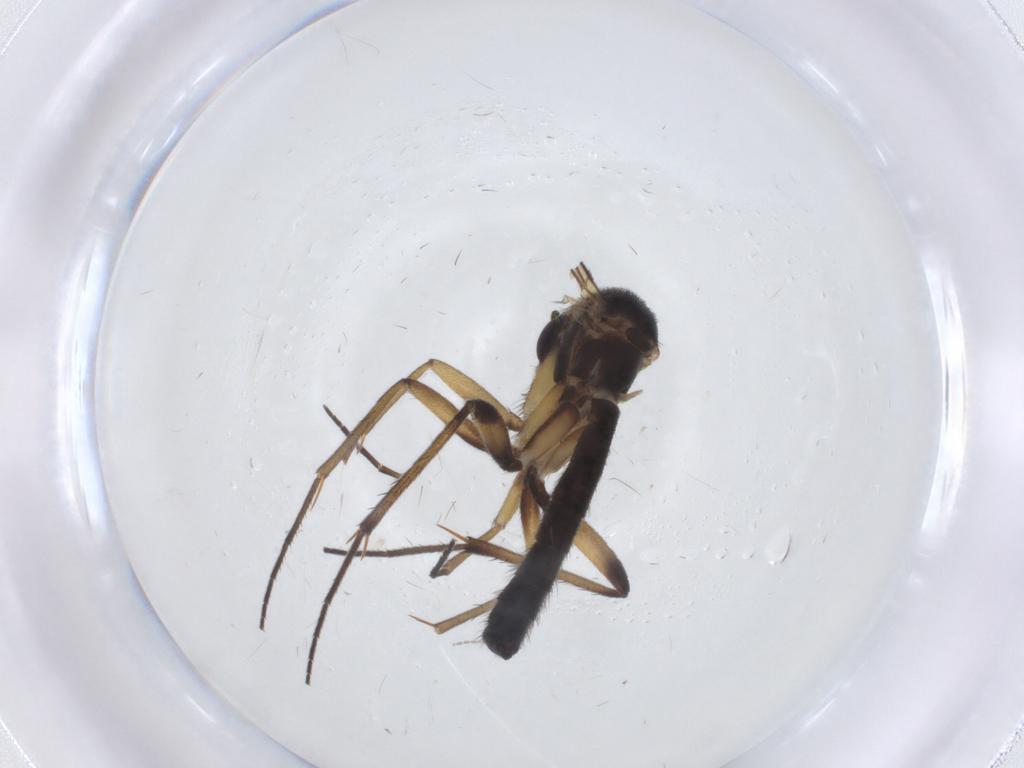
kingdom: Animalia
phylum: Arthropoda
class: Insecta
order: Diptera
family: Mycetophilidae
